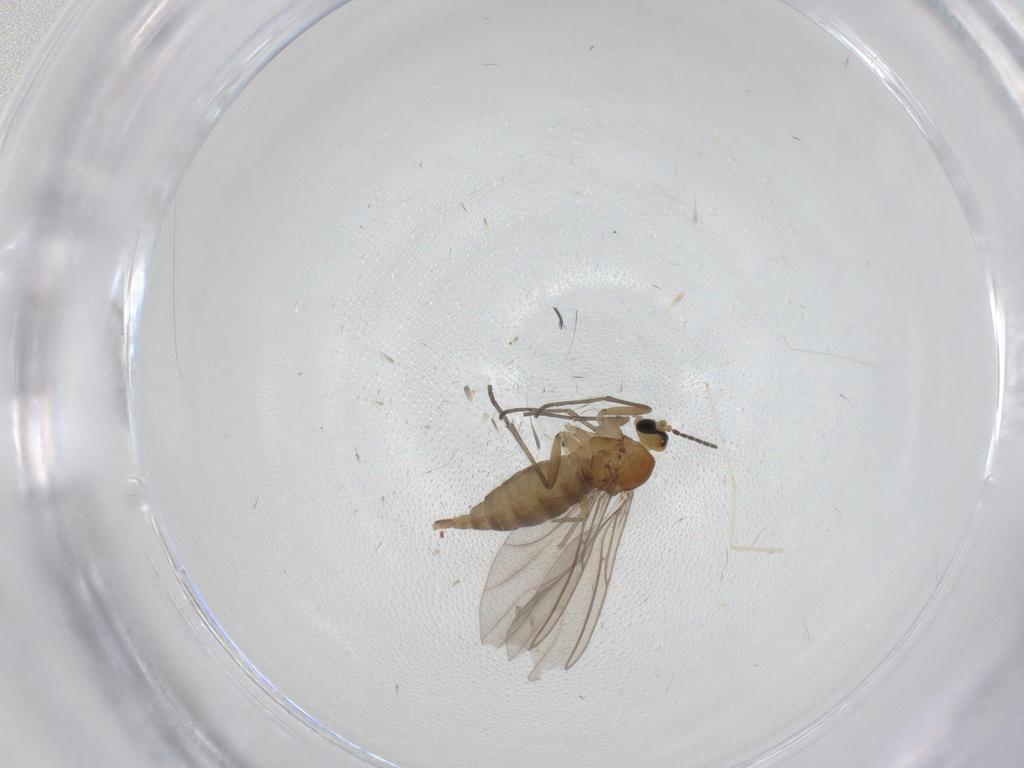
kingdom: Animalia
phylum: Arthropoda
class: Insecta
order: Diptera
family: Sciaridae
